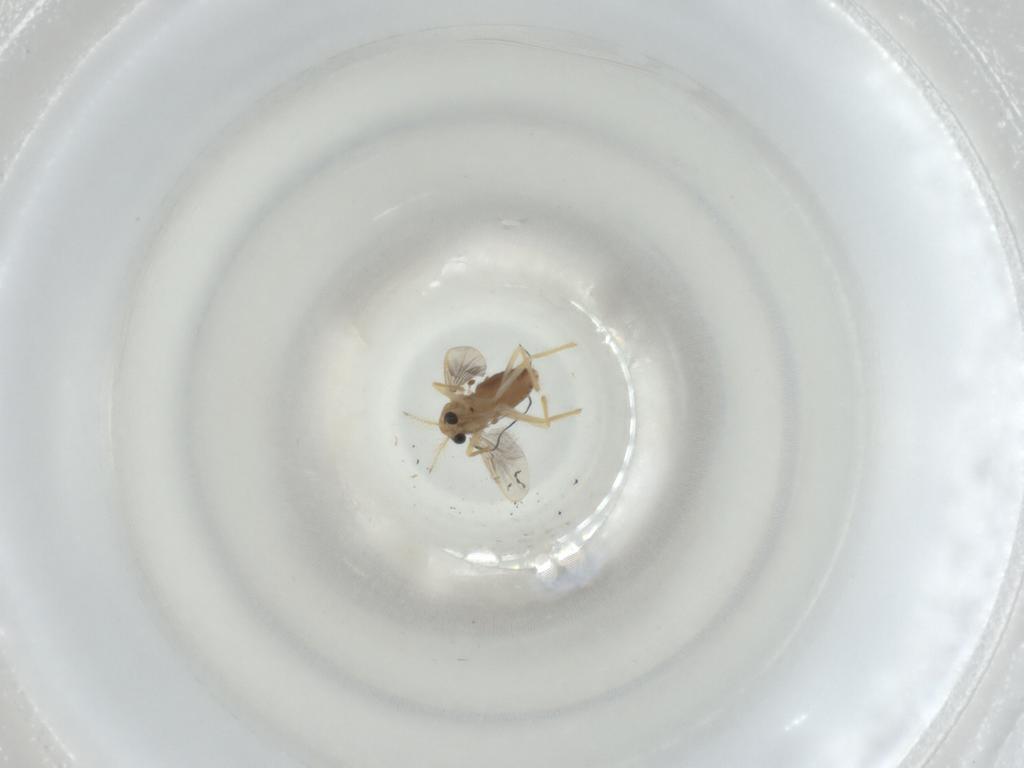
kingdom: Animalia
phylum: Arthropoda
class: Insecta
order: Diptera
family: Chironomidae
